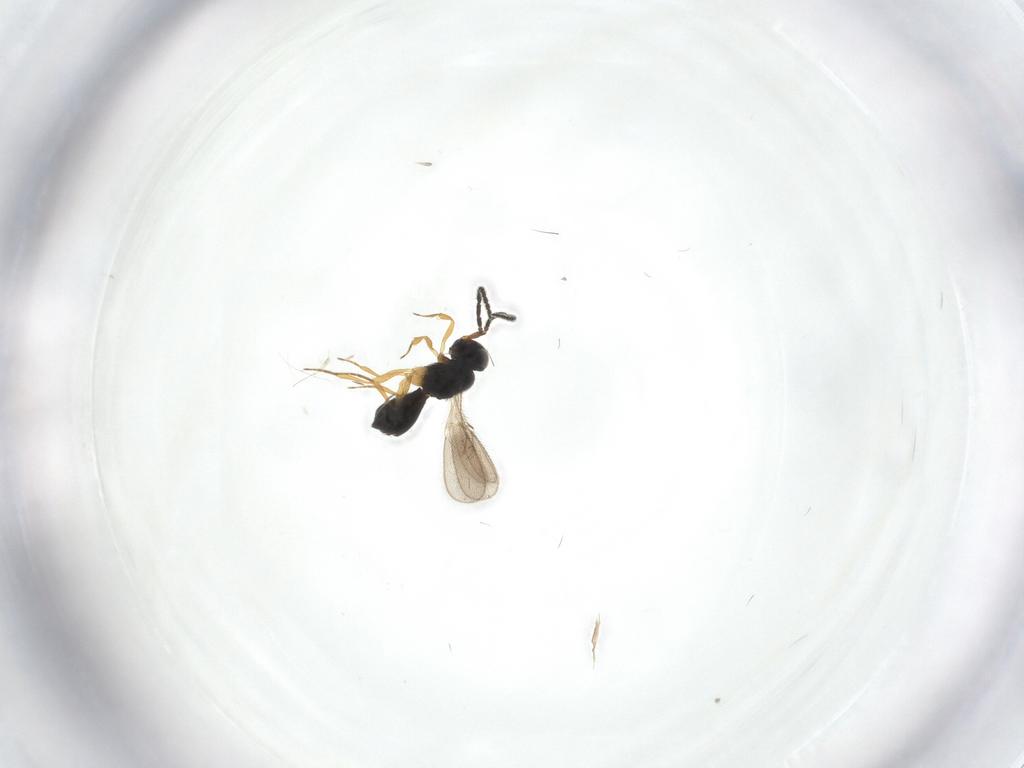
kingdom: Animalia
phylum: Arthropoda
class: Insecta
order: Hymenoptera
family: Scelionidae
